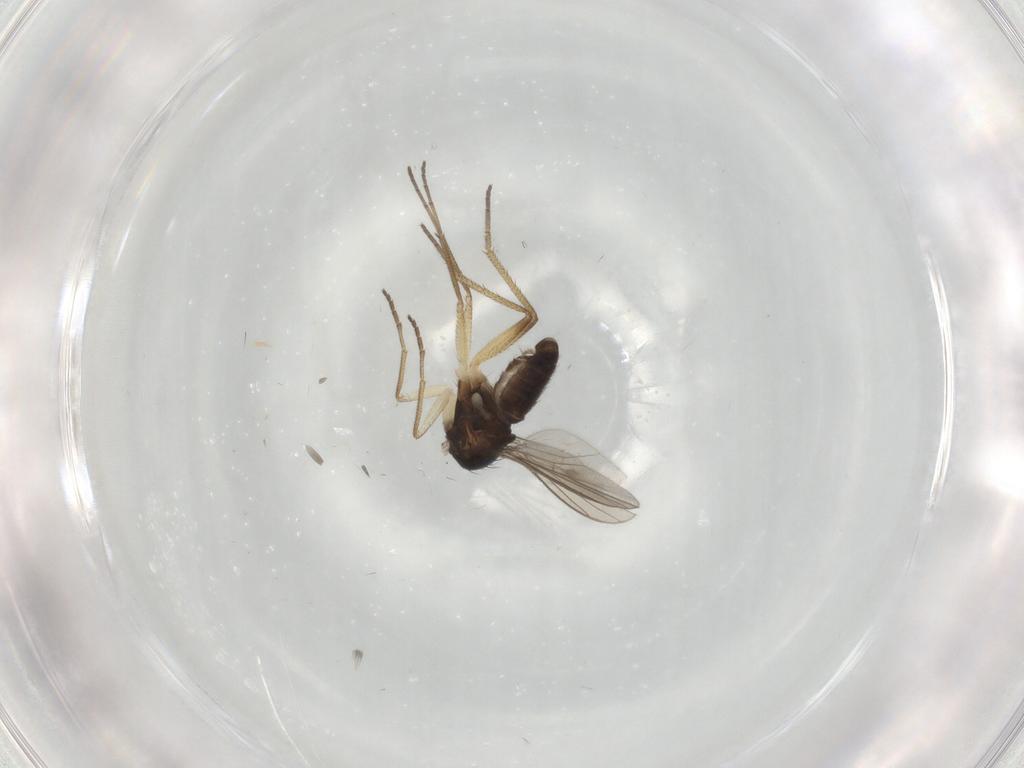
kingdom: Animalia
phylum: Arthropoda
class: Insecta
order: Diptera
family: Dolichopodidae
